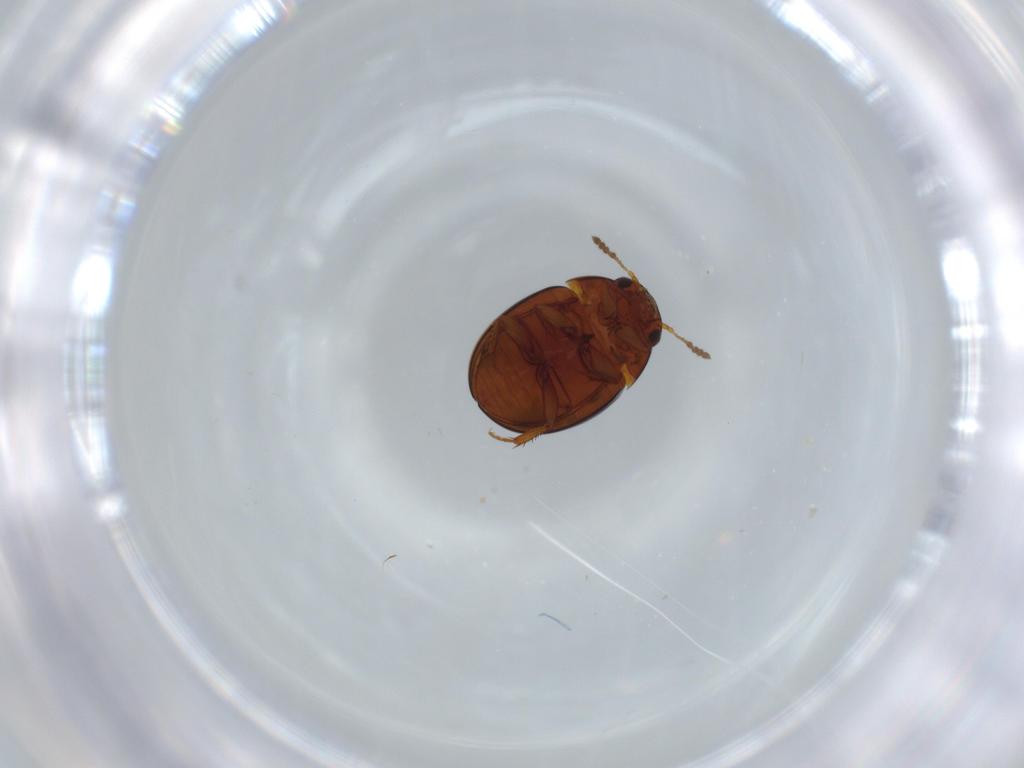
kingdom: Animalia
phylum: Arthropoda
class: Insecta
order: Coleoptera
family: Leiodidae
